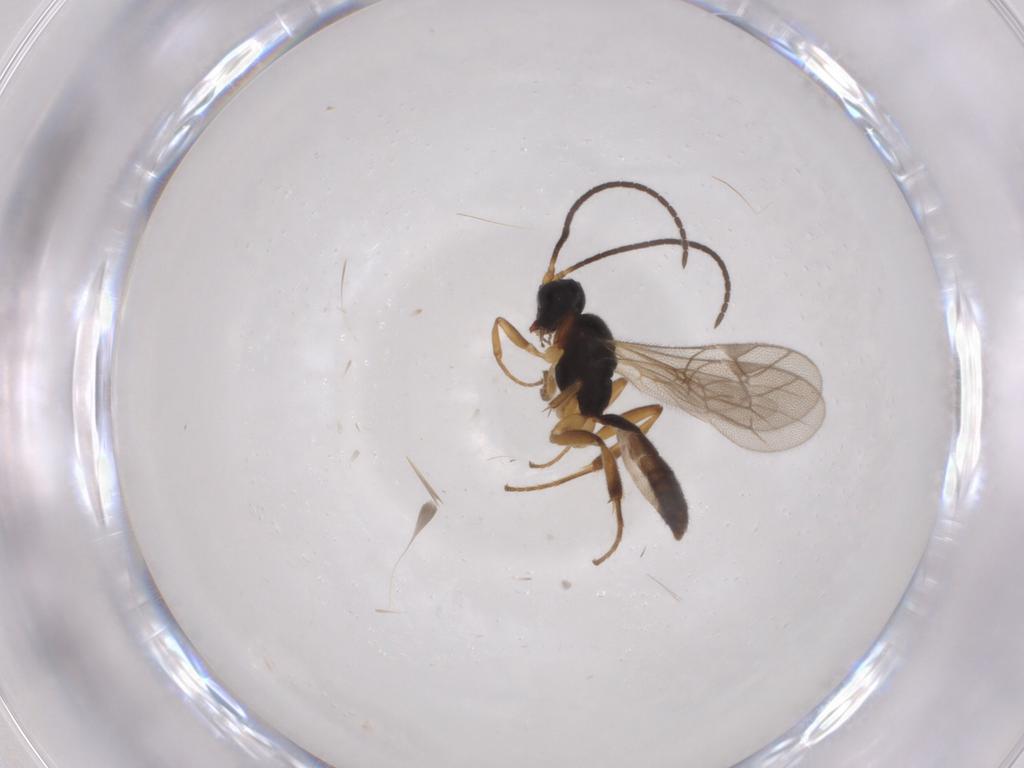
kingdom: Animalia
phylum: Arthropoda
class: Insecta
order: Hymenoptera
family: Ichneumonidae
